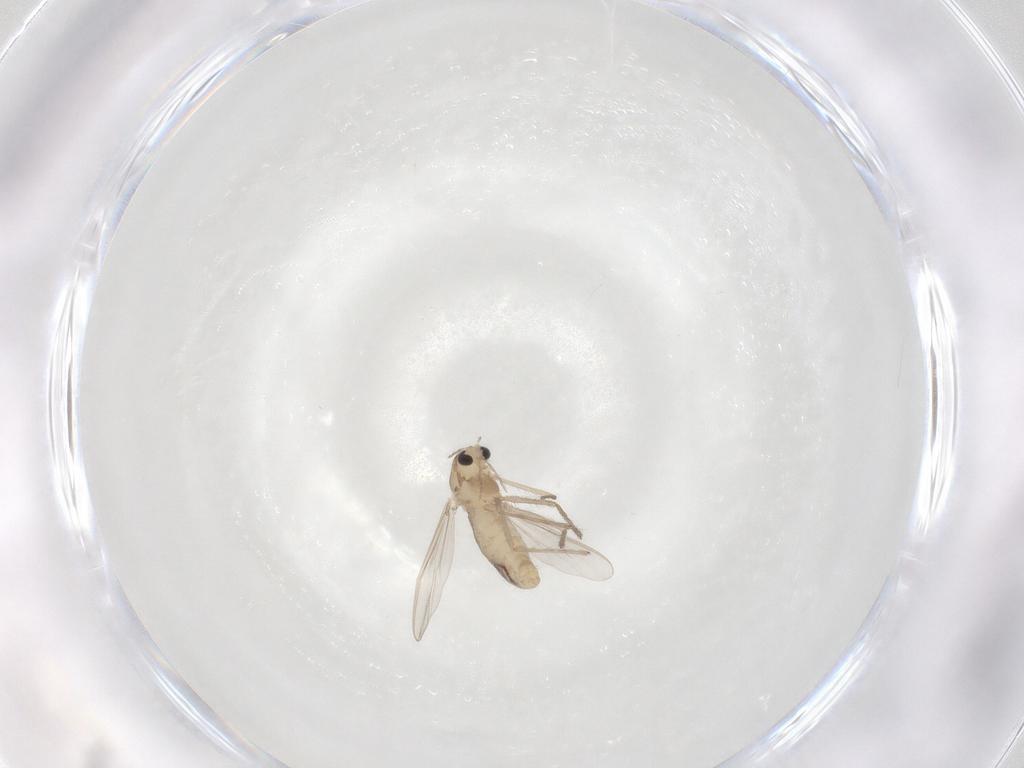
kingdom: Animalia
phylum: Arthropoda
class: Insecta
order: Diptera
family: Chironomidae
